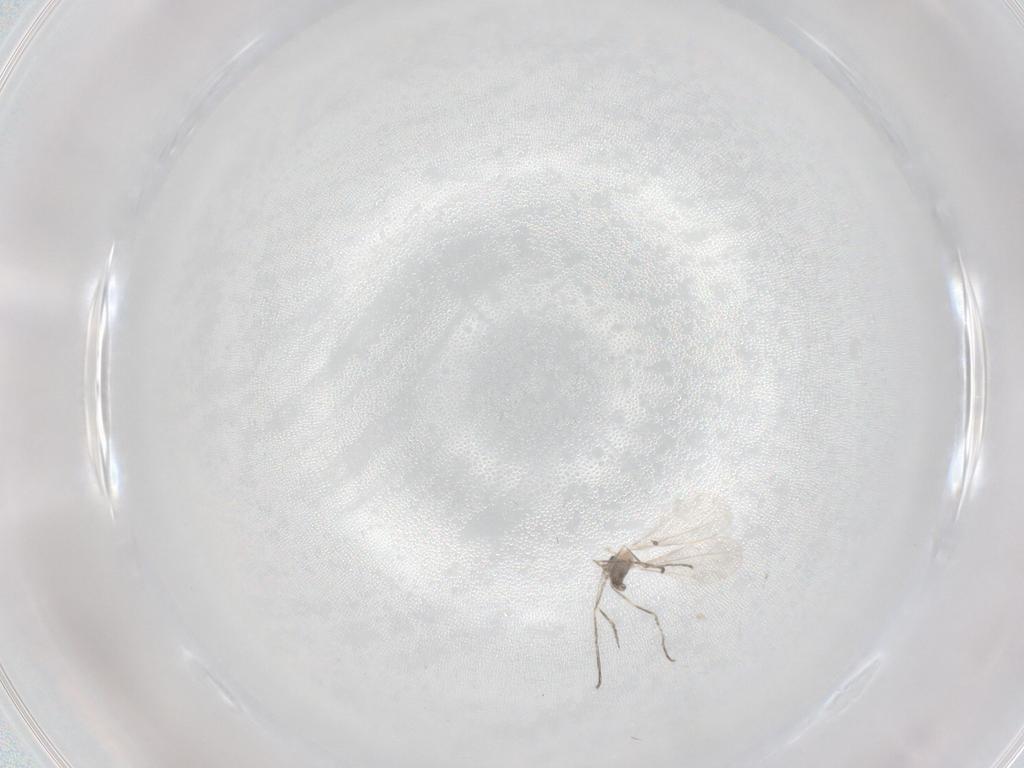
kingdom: Animalia
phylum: Arthropoda
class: Insecta
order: Diptera
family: Cecidomyiidae
